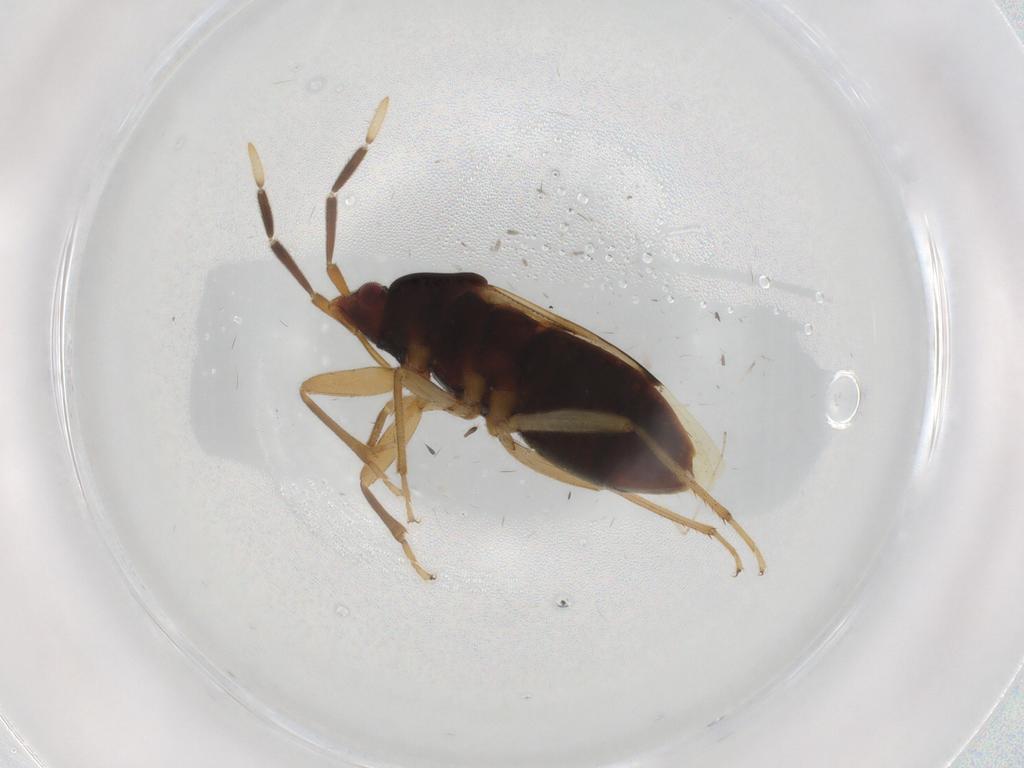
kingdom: Animalia
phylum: Arthropoda
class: Insecta
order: Hemiptera
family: Rhyparochromidae
